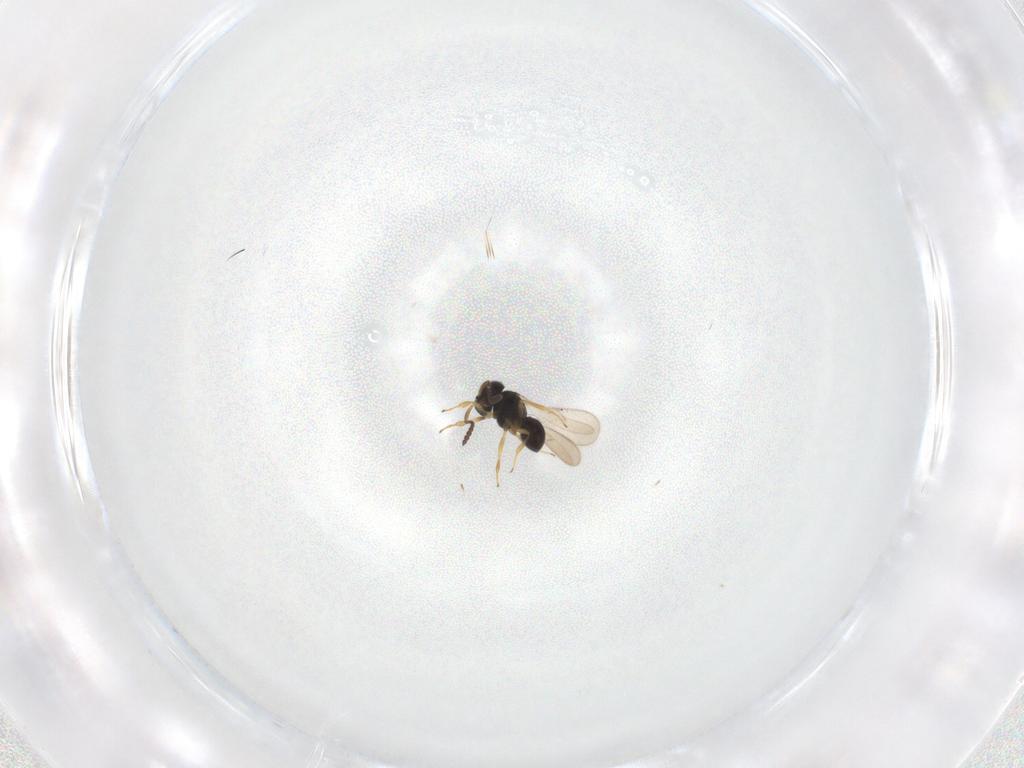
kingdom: Animalia
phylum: Arthropoda
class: Insecta
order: Hymenoptera
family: Scelionidae
